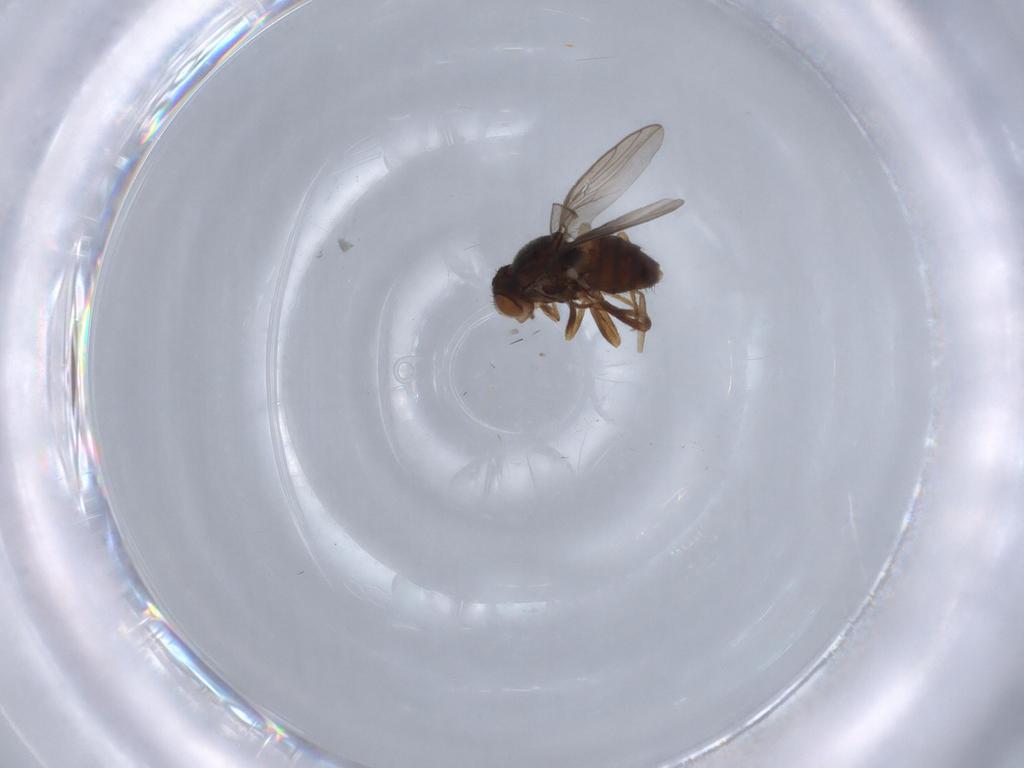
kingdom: Animalia
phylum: Arthropoda
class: Insecta
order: Diptera
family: Chloropidae
